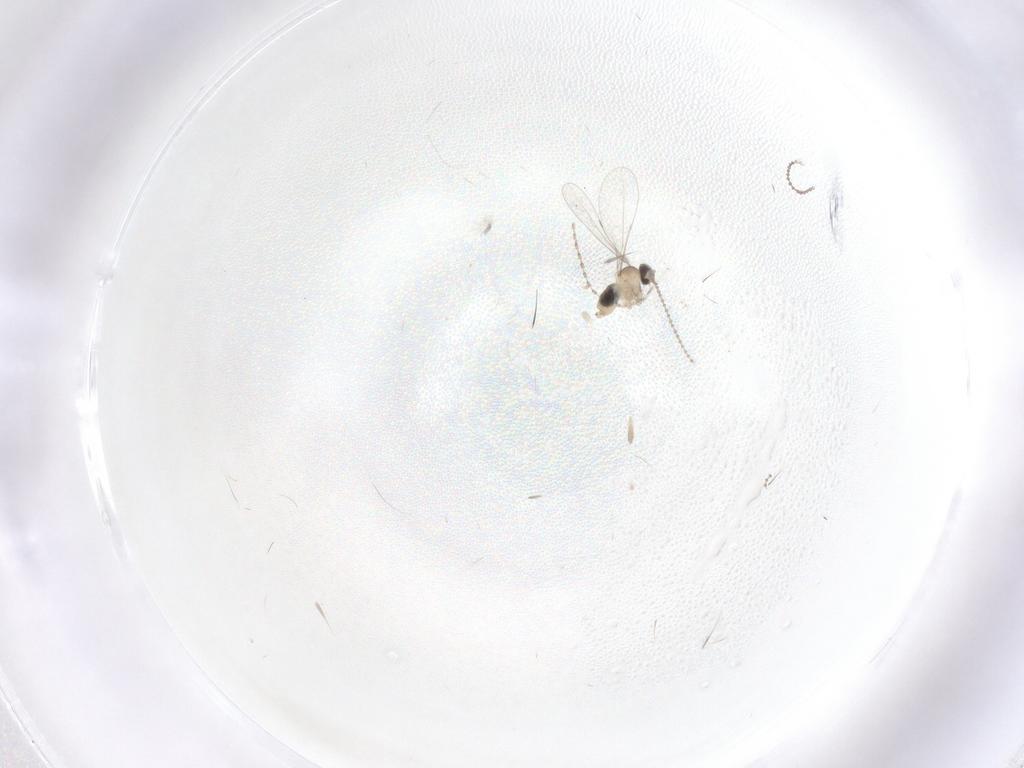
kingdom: Animalia
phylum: Arthropoda
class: Insecta
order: Diptera
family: Cecidomyiidae
